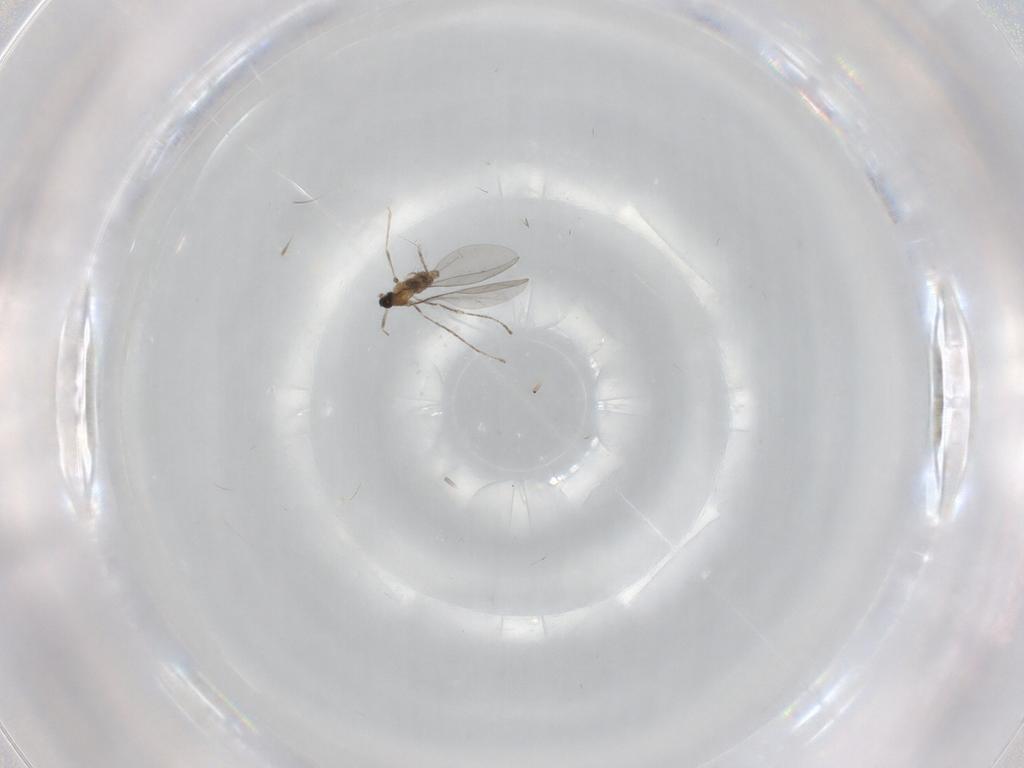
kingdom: Animalia
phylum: Arthropoda
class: Insecta
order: Diptera
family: Cecidomyiidae
